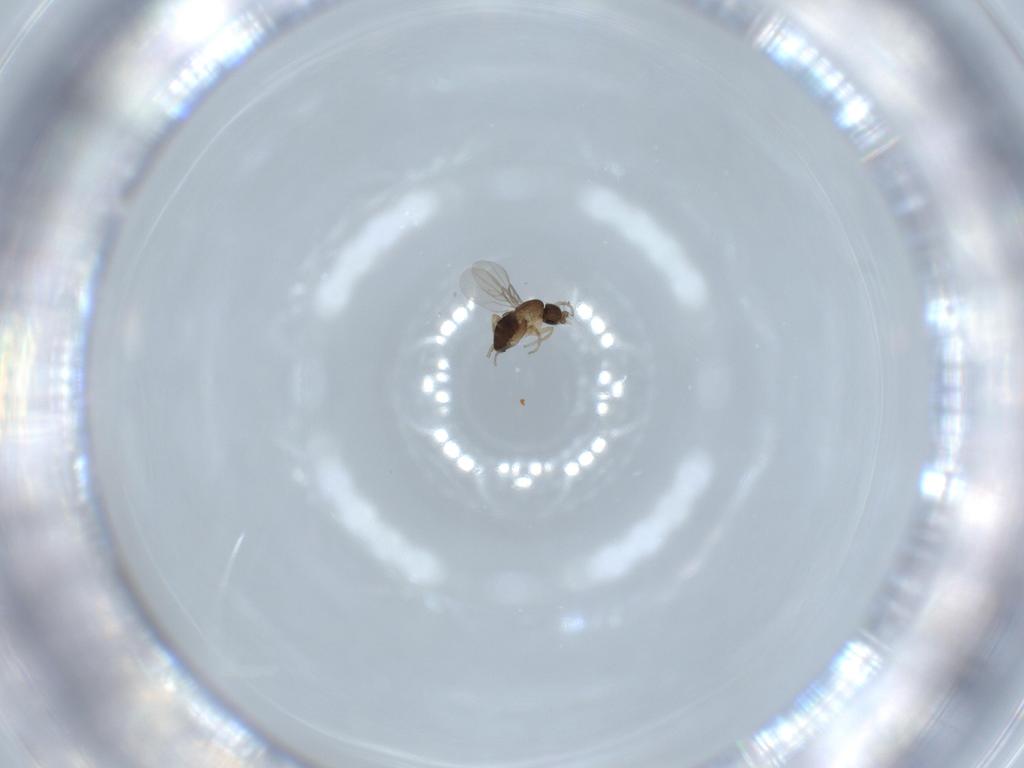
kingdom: Animalia
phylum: Arthropoda
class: Insecta
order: Diptera
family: Phoridae
